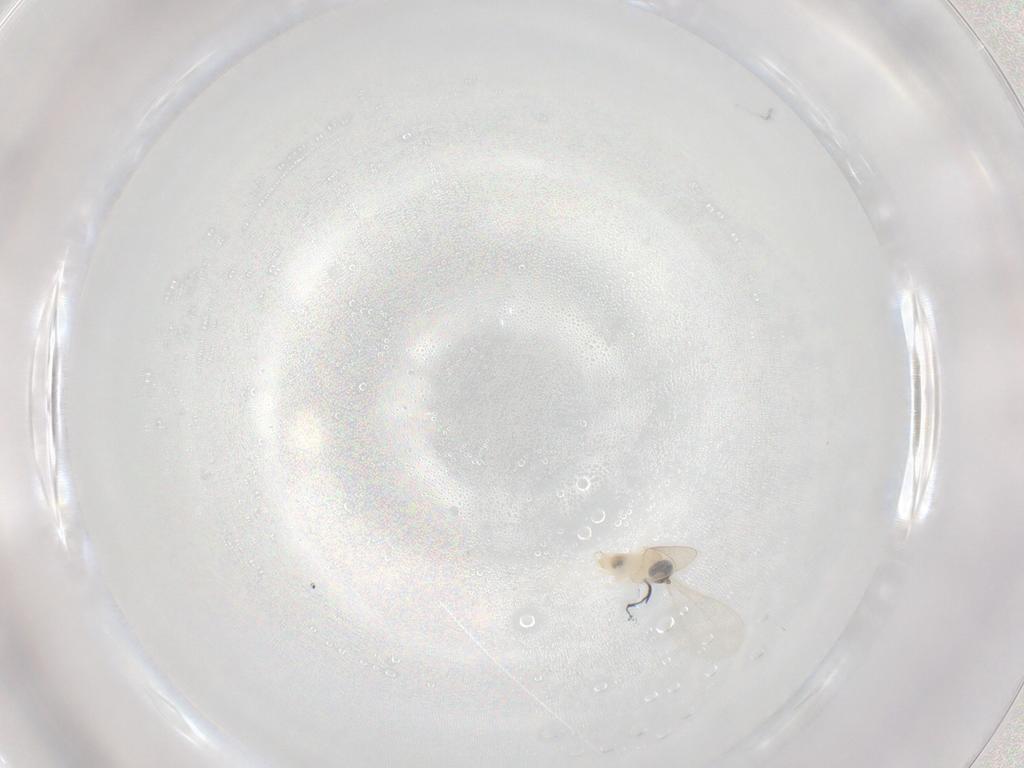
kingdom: Animalia
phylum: Arthropoda
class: Insecta
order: Diptera
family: Cecidomyiidae
